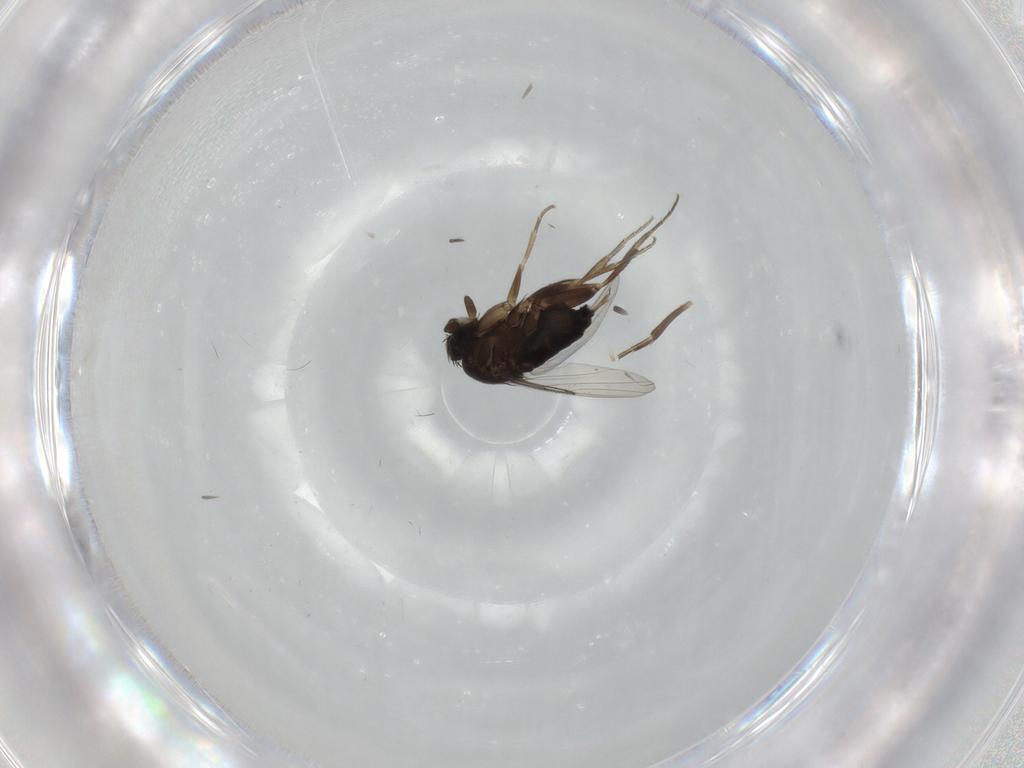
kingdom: Animalia
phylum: Arthropoda
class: Insecta
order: Diptera
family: Phoridae
